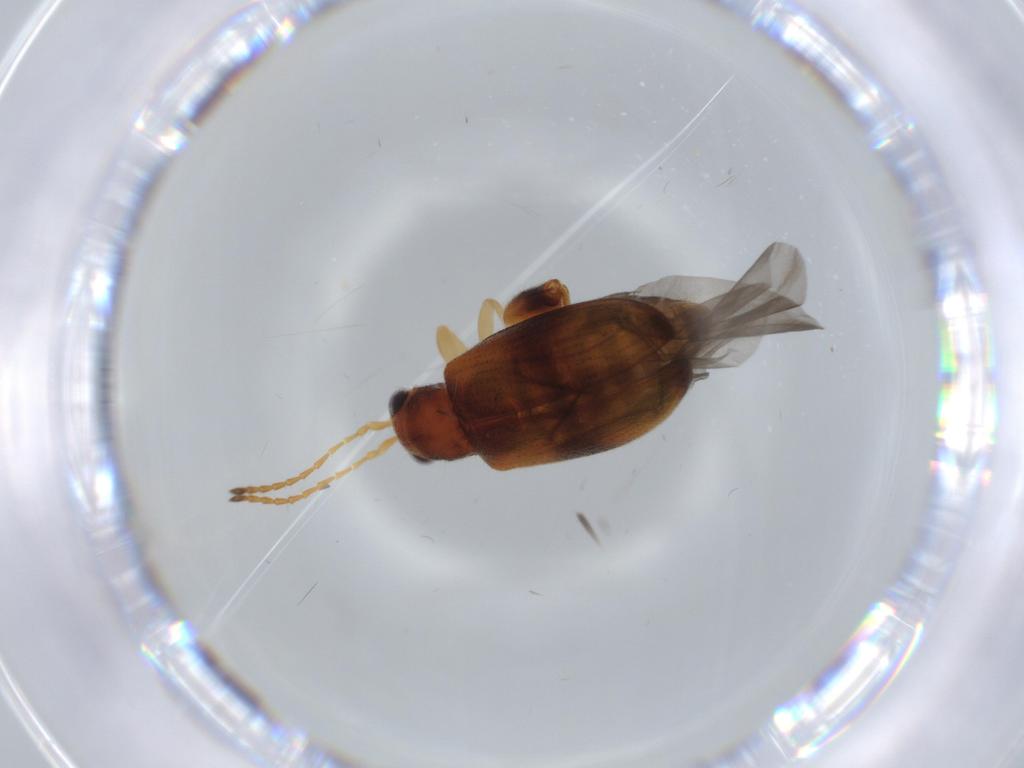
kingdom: Animalia
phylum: Arthropoda
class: Insecta
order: Coleoptera
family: Chrysomelidae
